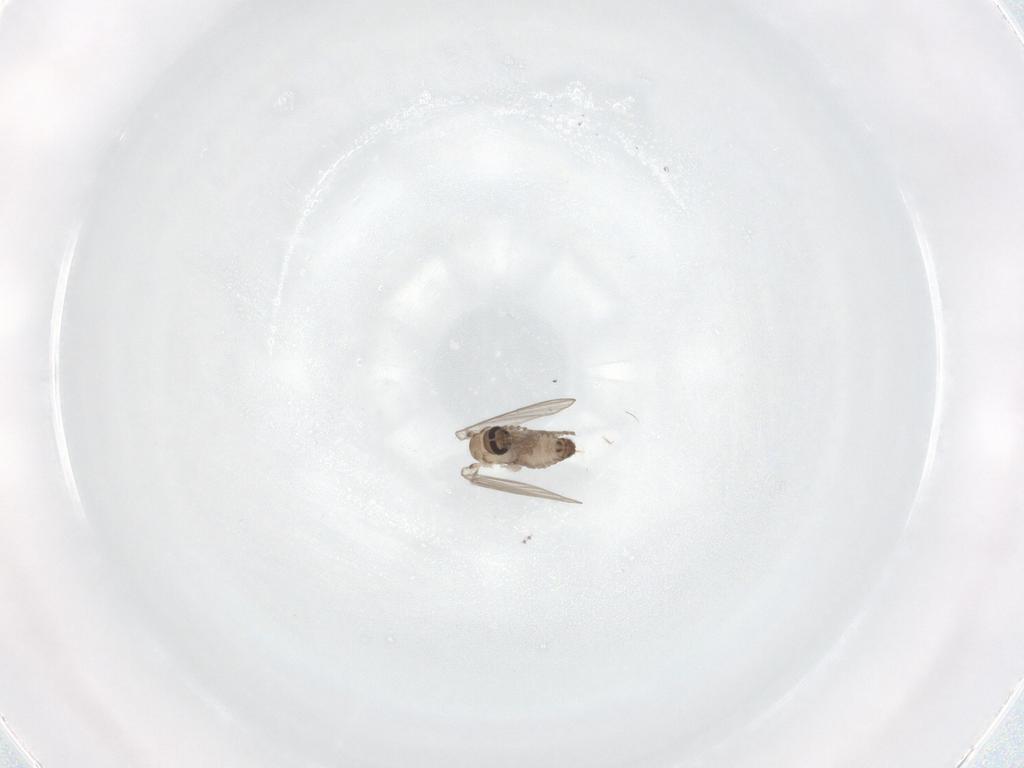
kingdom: Animalia
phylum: Arthropoda
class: Insecta
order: Diptera
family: Psychodidae
